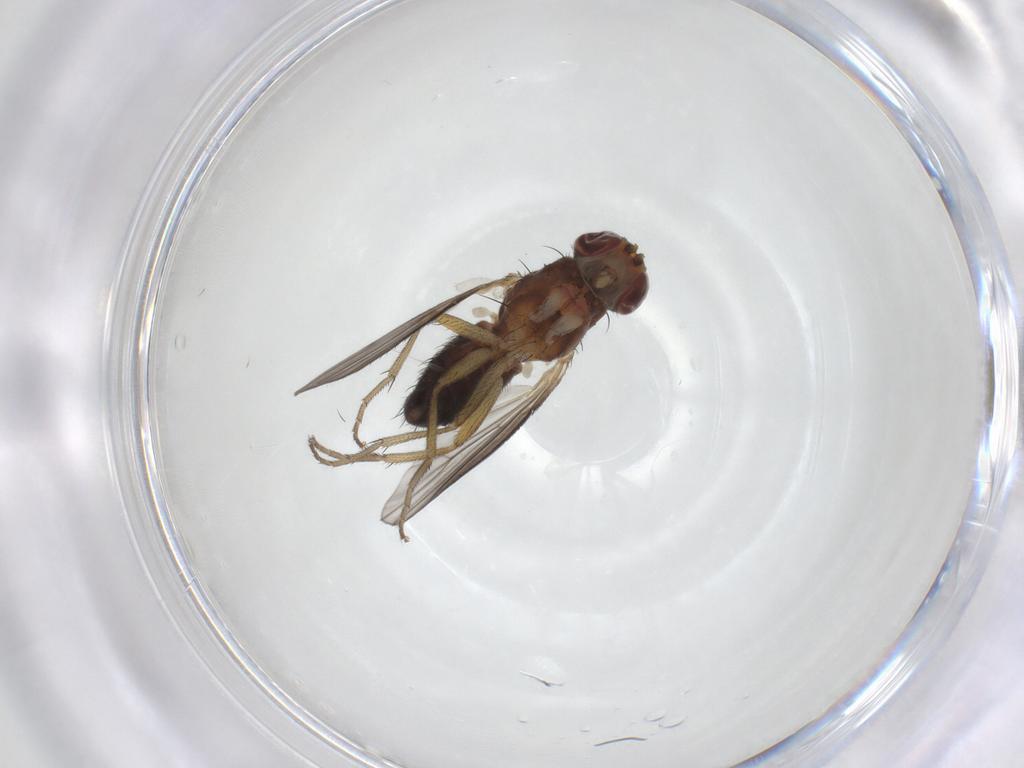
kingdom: Animalia
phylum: Arthropoda
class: Insecta
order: Diptera
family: Heleomyzidae
